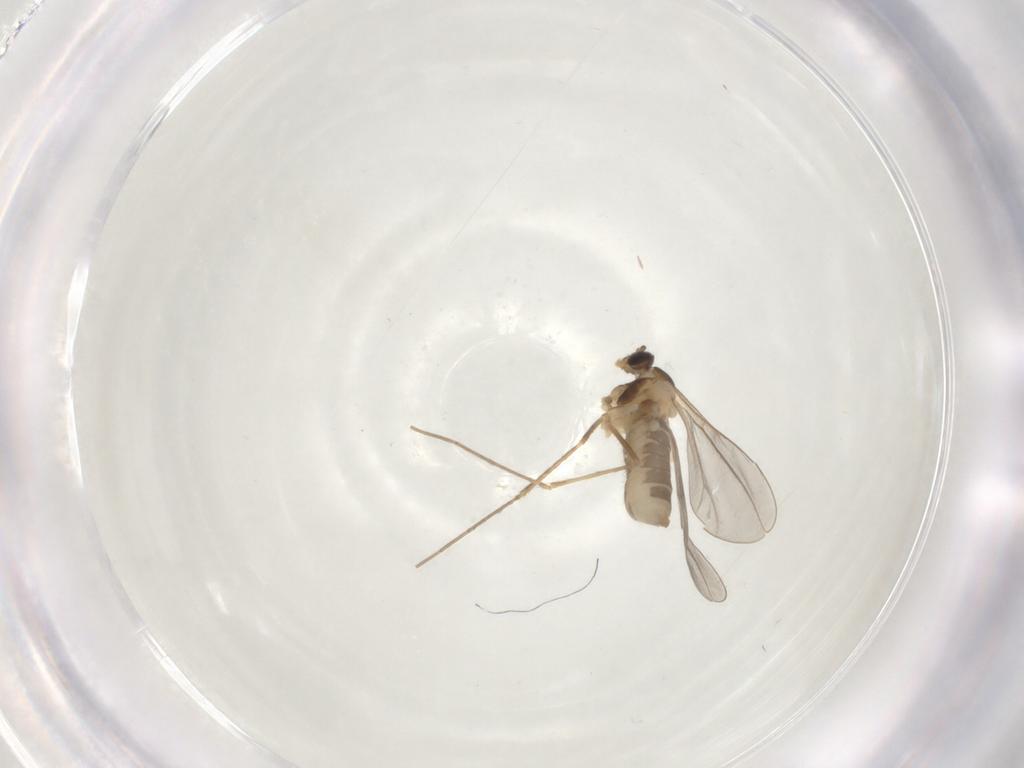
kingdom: Animalia
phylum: Arthropoda
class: Insecta
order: Diptera
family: Cecidomyiidae
